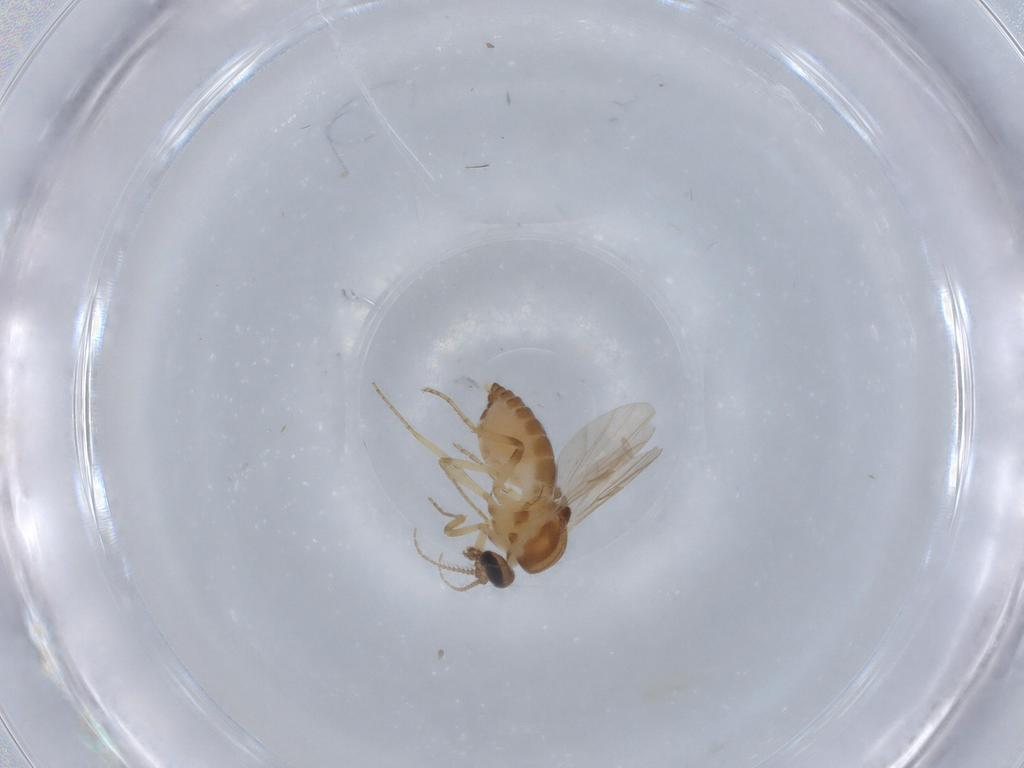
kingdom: Animalia
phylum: Arthropoda
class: Insecta
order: Diptera
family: Ceratopogonidae
